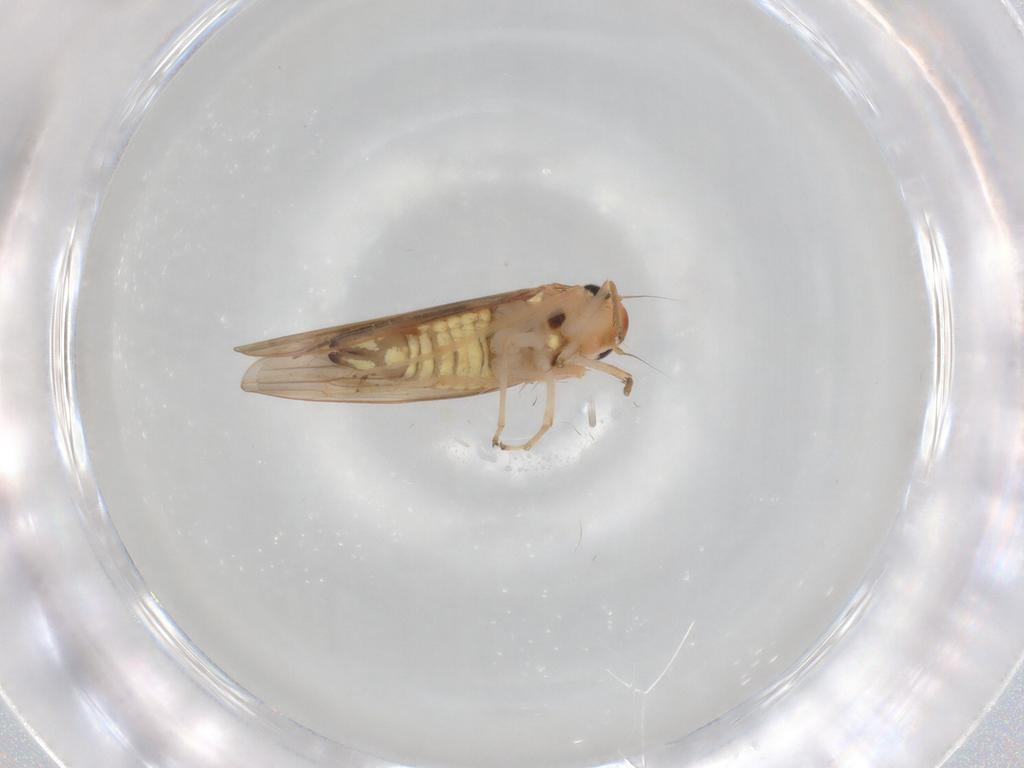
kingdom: Animalia
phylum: Arthropoda
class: Insecta
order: Hemiptera
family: Cicadellidae
